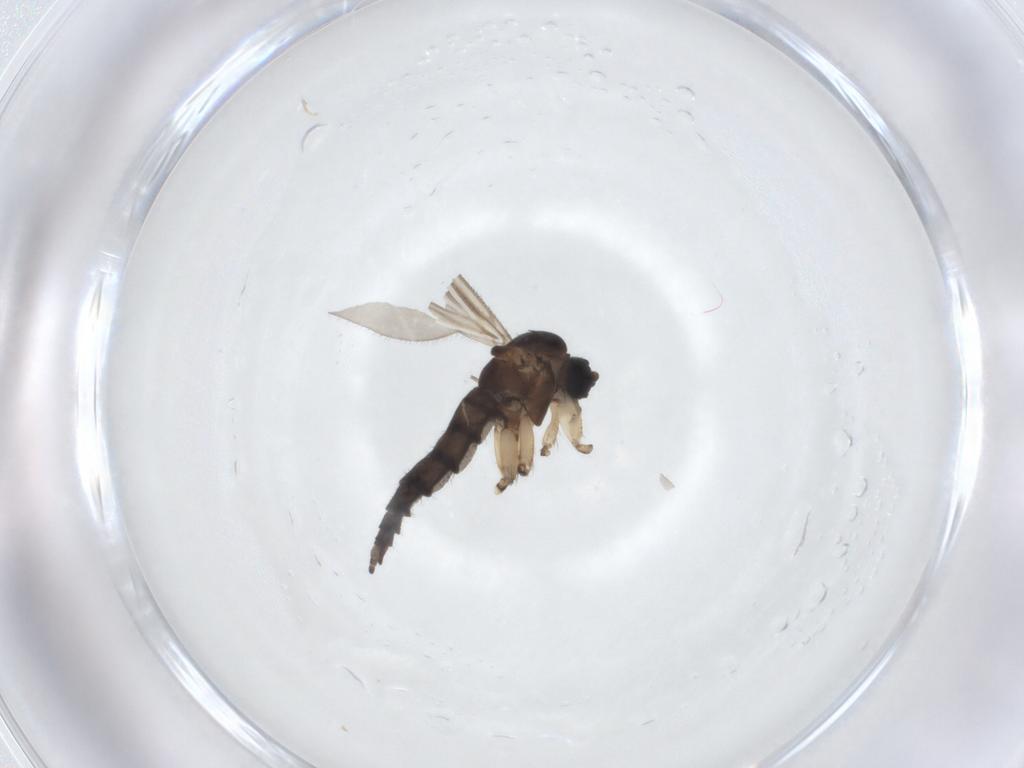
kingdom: Animalia
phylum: Arthropoda
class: Insecta
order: Diptera
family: Sciaridae
